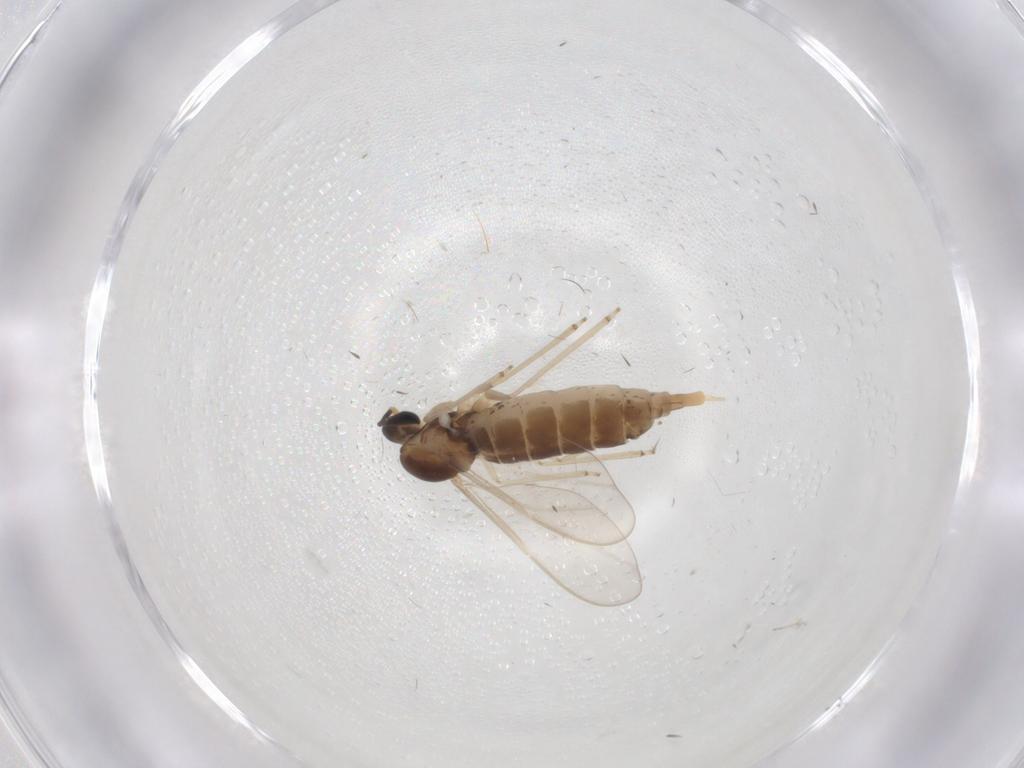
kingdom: Animalia
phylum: Arthropoda
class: Insecta
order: Diptera
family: Cecidomyiidae
